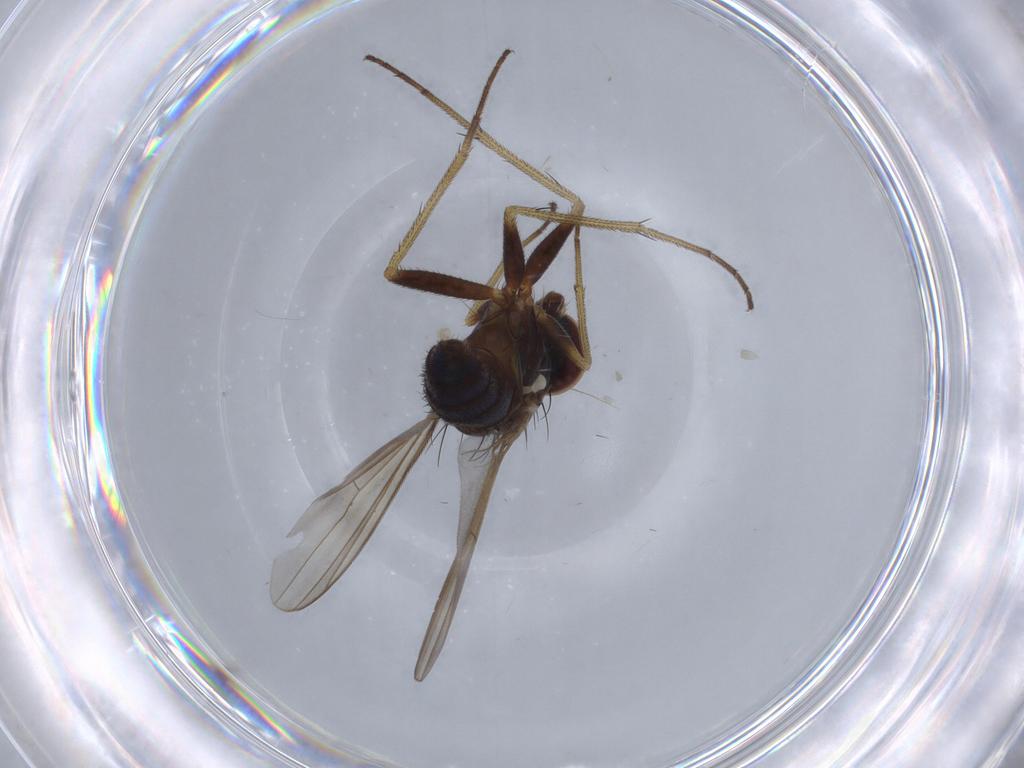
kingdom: Animalia
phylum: Arthropoda
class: Insecta
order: Diptera
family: Dolichopodidae
